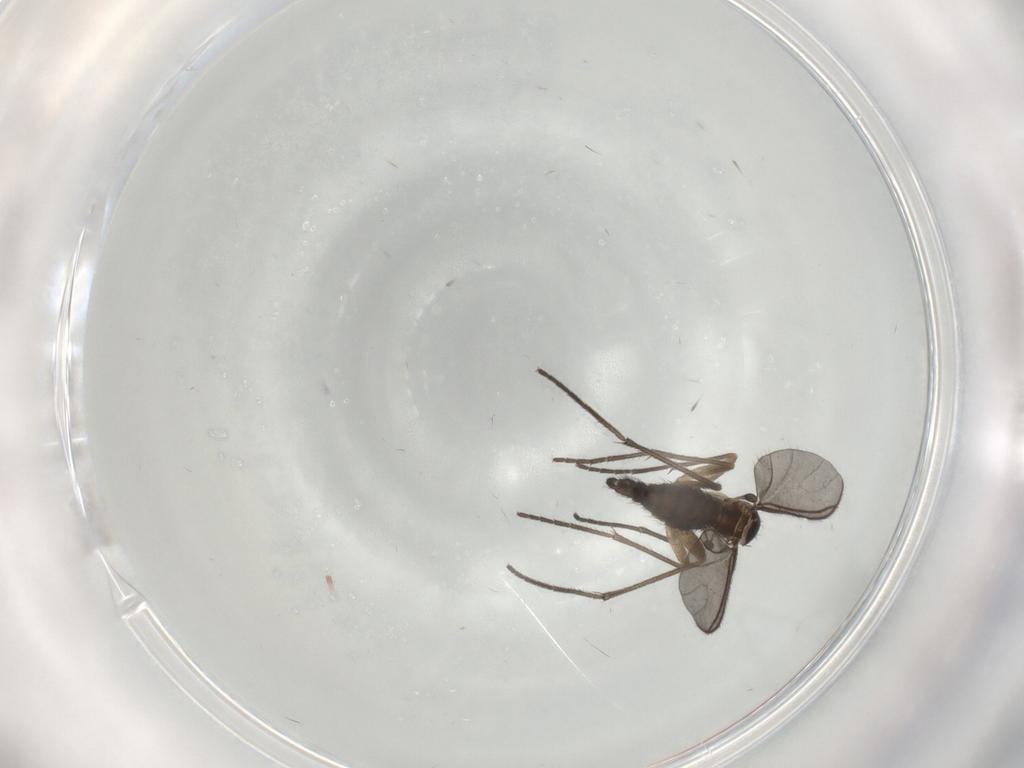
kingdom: Animalia
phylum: Arthropoda
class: Insecta
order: Diptera
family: Sciaridae
